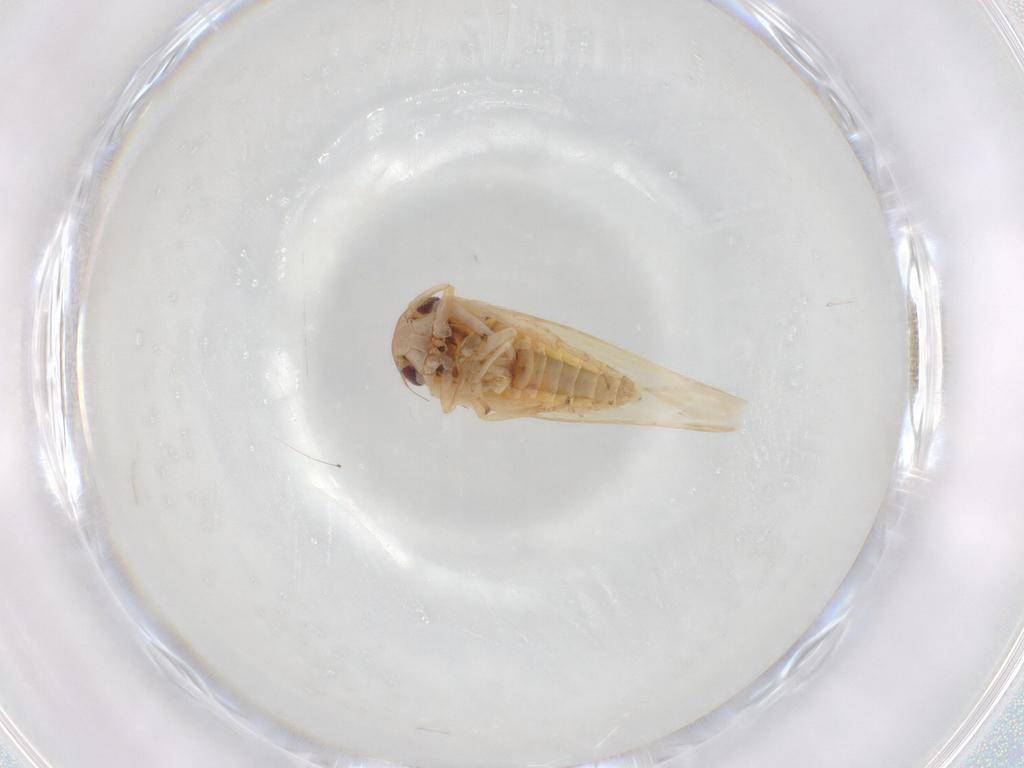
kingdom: Animalia
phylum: Arthropoda
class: Insecta
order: Hemiptera
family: Cicadellidae
